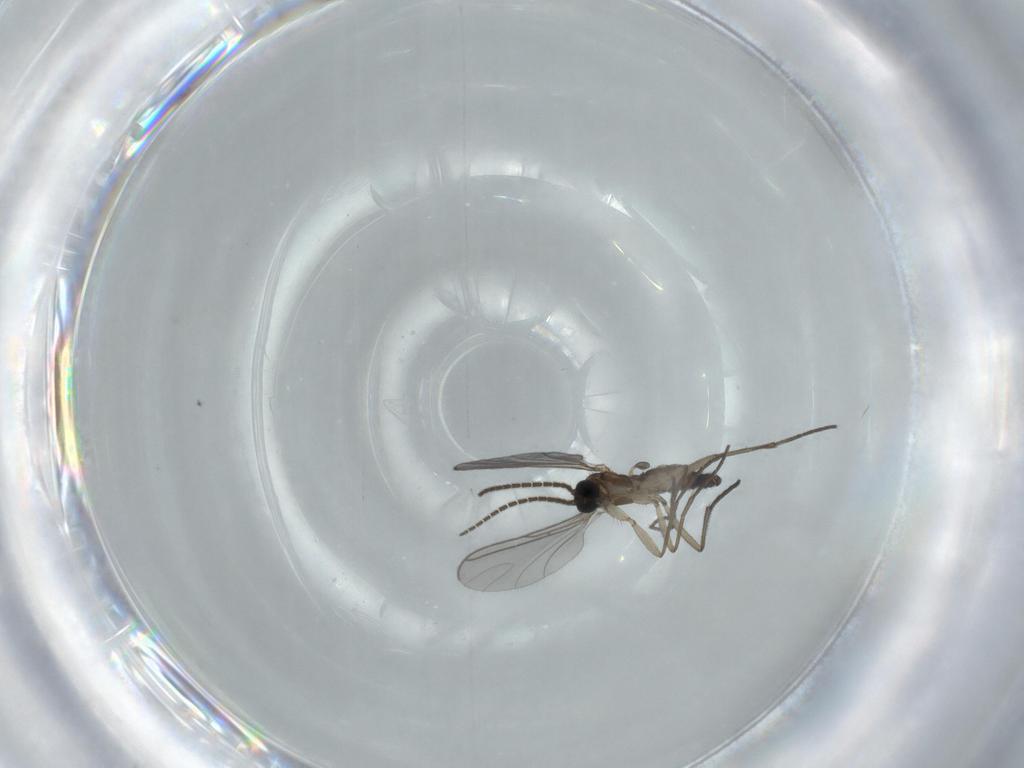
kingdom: Animalia
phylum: Arthropoda
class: Insecta
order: Diptera
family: Sciaridae
